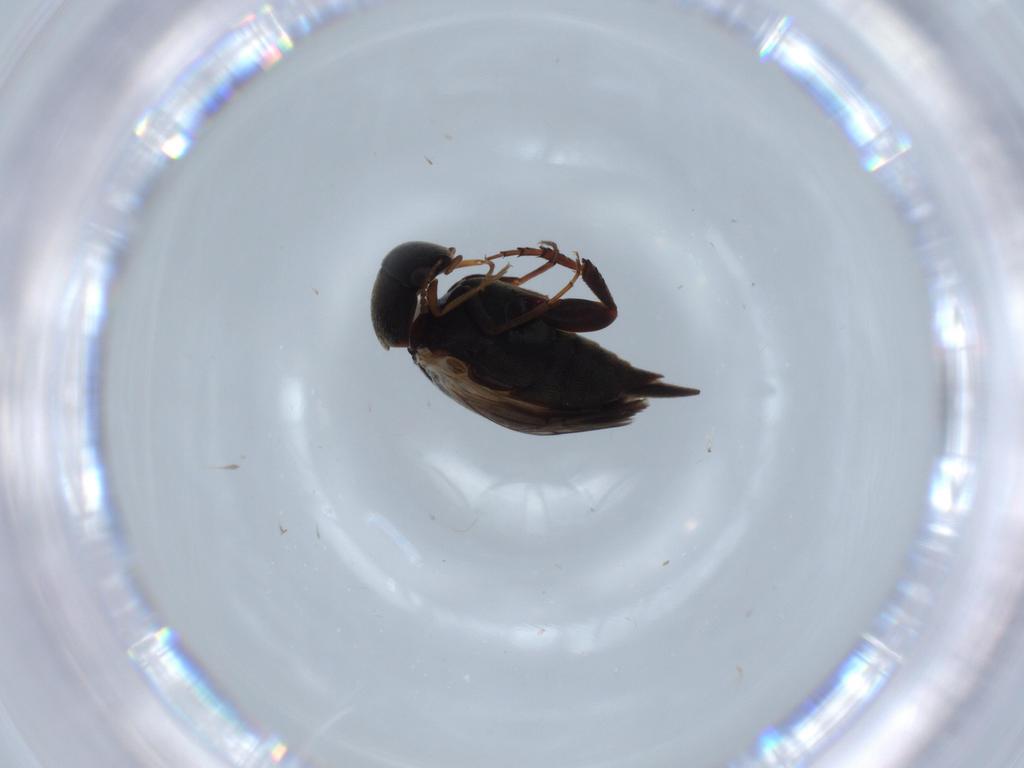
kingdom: Animalia
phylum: Arthropoda
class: Insecta
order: Coleoptera
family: Mordellidae
